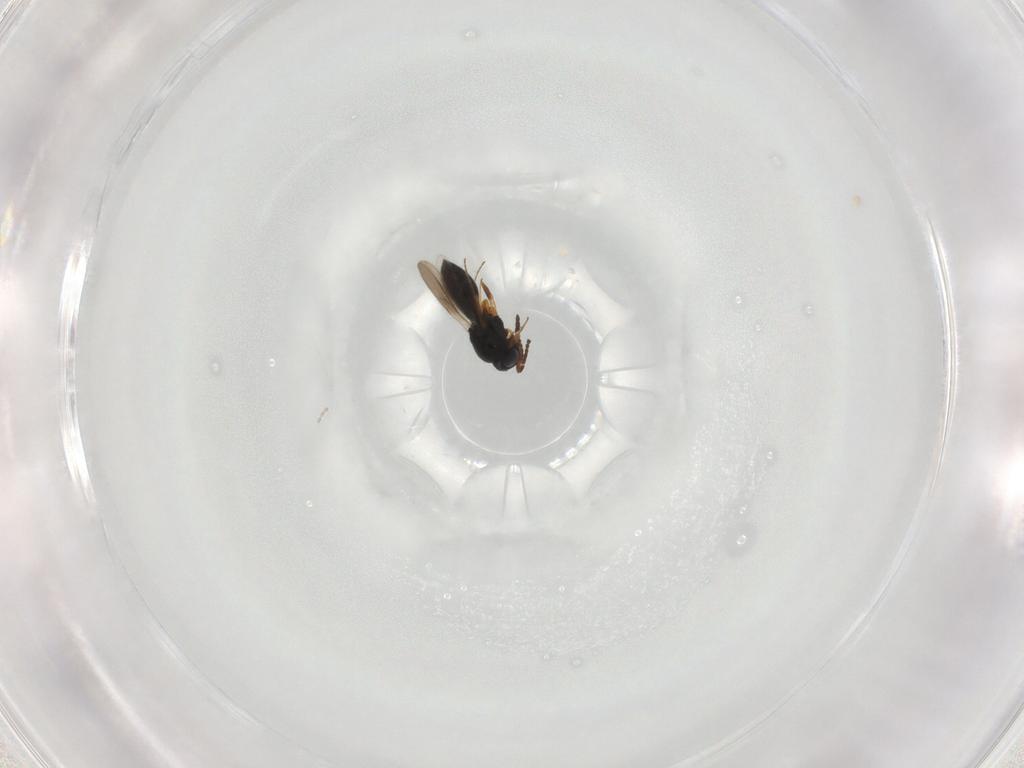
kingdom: Animalia
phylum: Arthropoda
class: Insecta
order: Hymenoptera
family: Scelionidae
